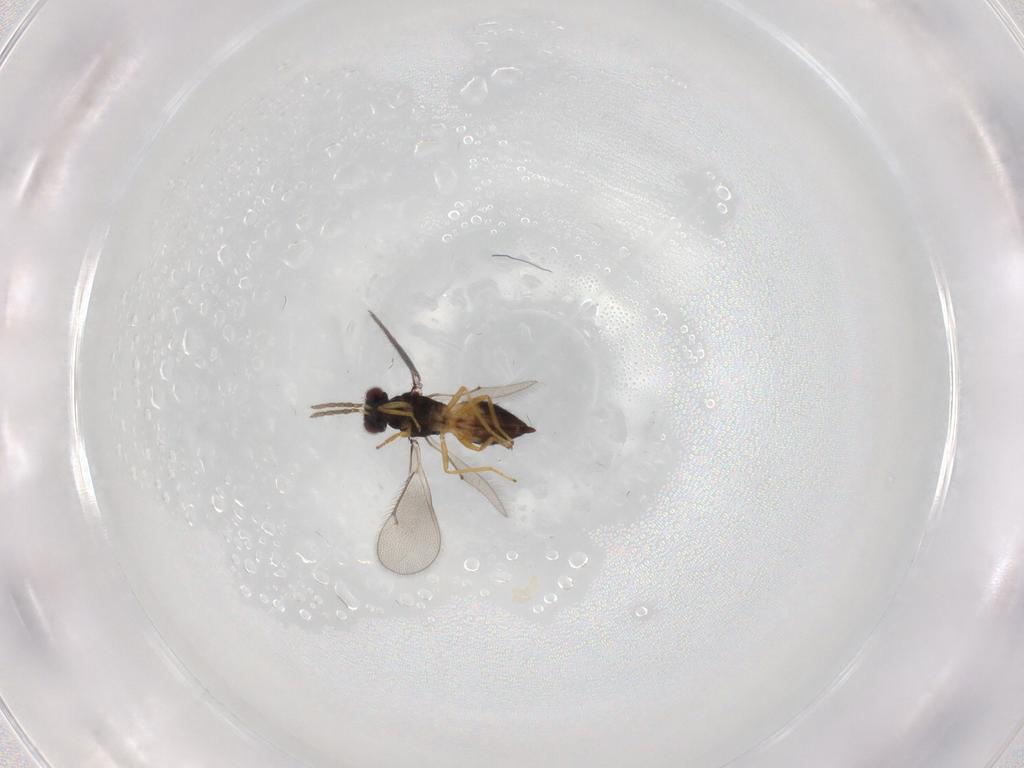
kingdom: Animalia
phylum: Arthropoda
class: Insecta
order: Hymenoptera
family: Eulophidae
